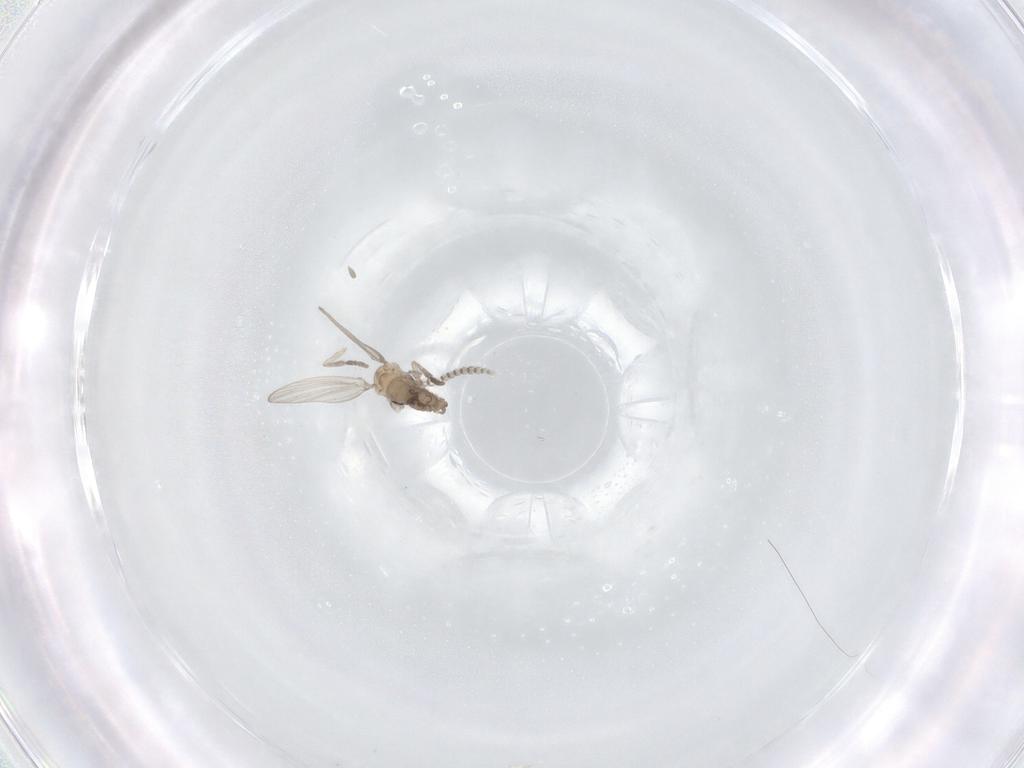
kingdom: Animalia
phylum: Arthropoda
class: Insecta
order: Diptera
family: Psychodidae
